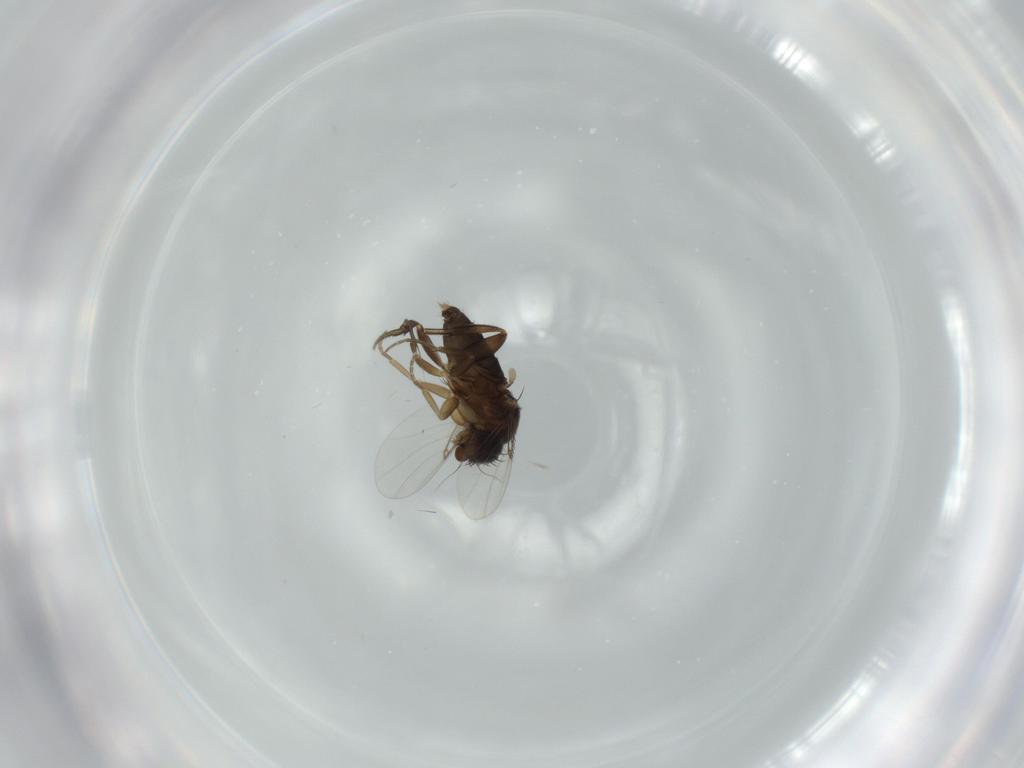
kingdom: Animalia
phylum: Arthropoda
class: Insecta
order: Diptera
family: Phoridae
